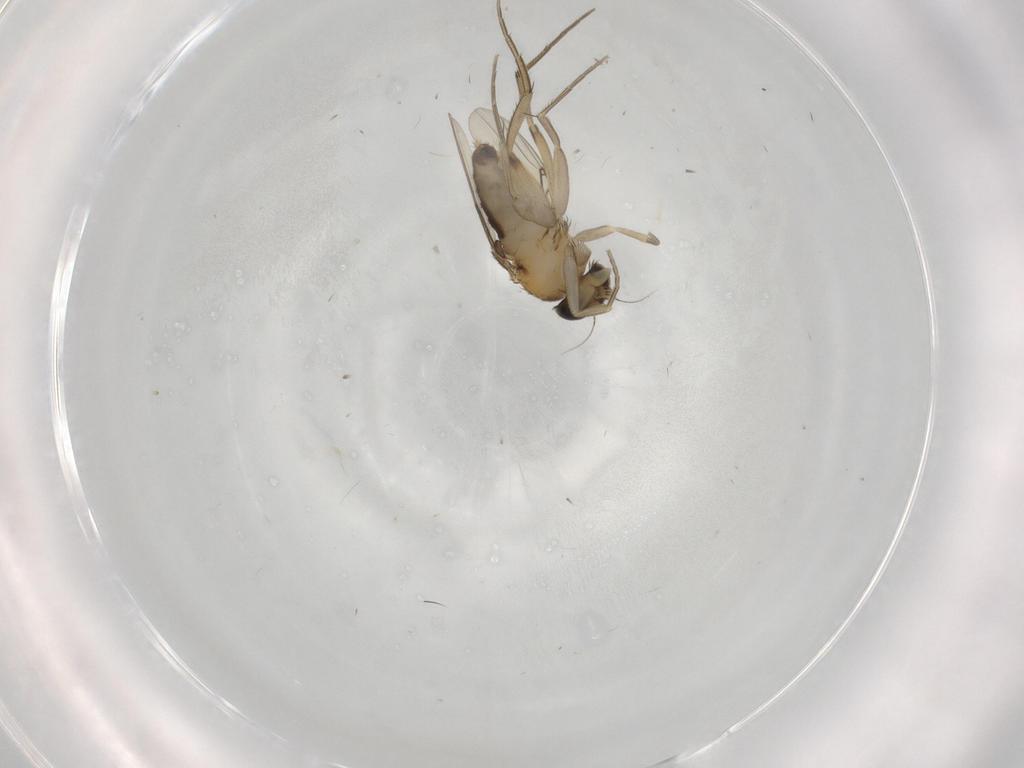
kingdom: Animalia
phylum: Arthropoda
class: Insecta
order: Diptera
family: Phoridae
